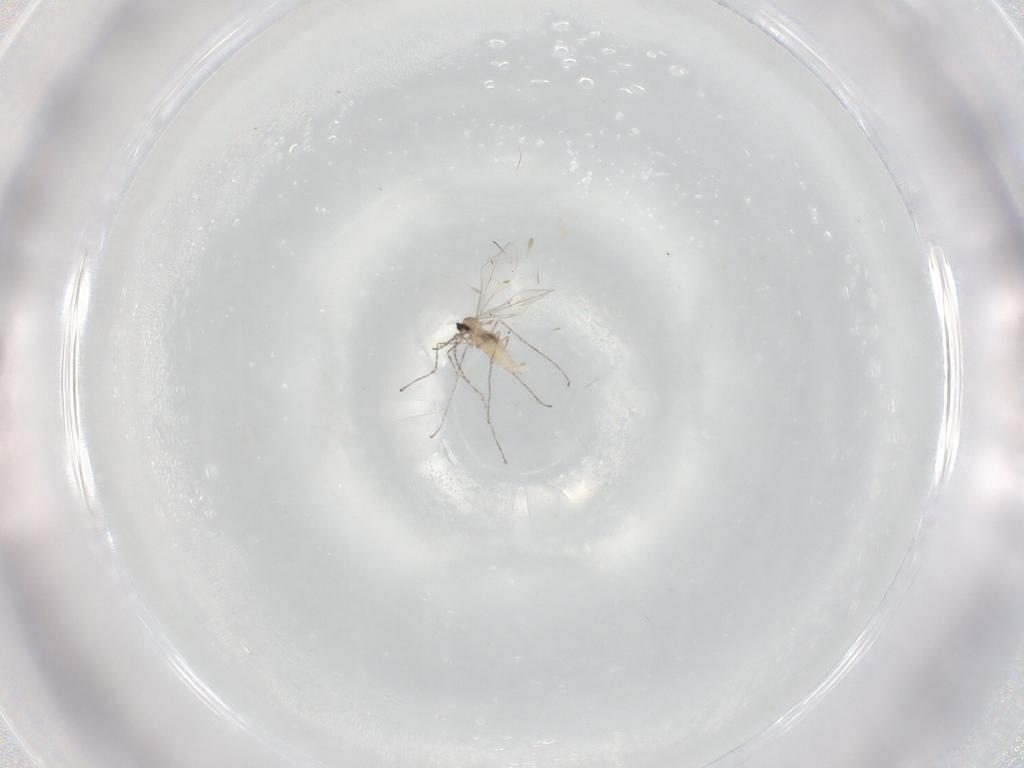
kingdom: Animalia
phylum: Arthropoda
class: Insecta
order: Diptera
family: Cecidomyiidae
